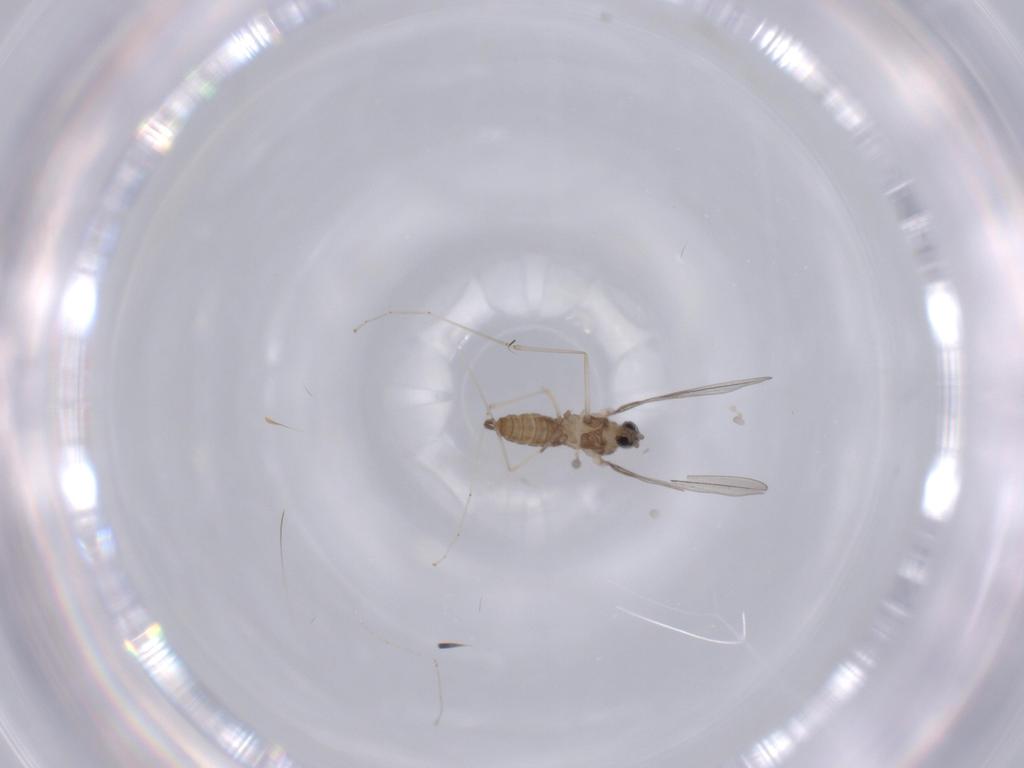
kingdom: Animalia
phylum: Arthropoda
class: Insecta
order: Diptera
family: Cecidomyiidae
